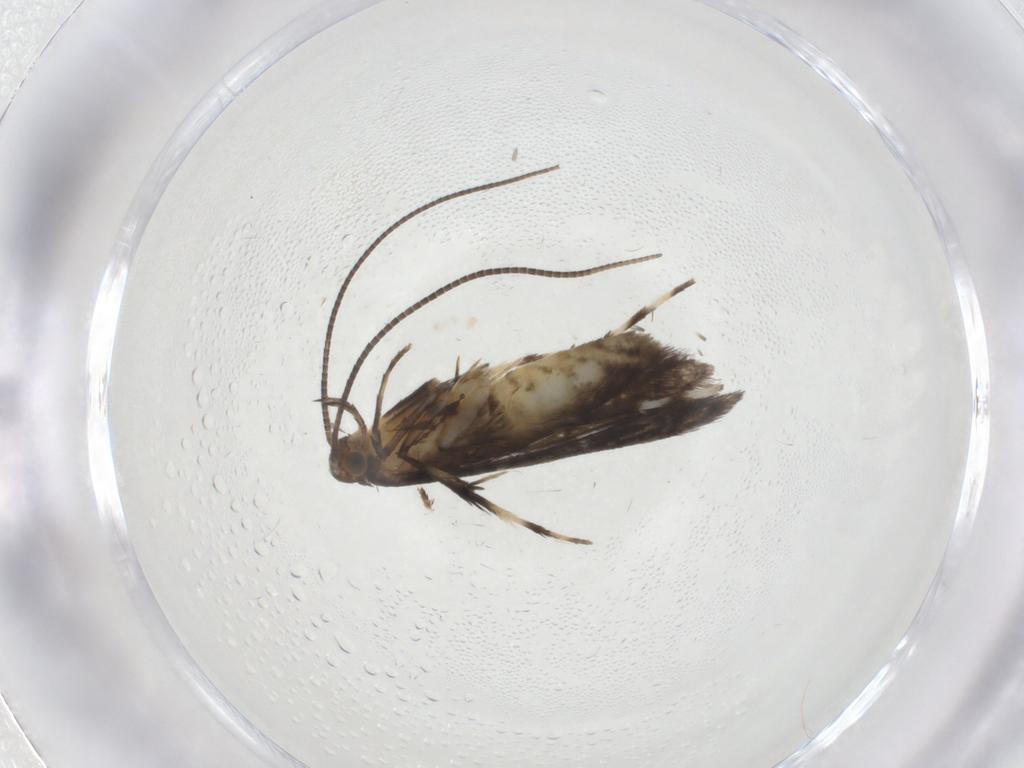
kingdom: Animalia
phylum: Arthropoda
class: Insecta
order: Lepidoptera
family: Gracillariidae
